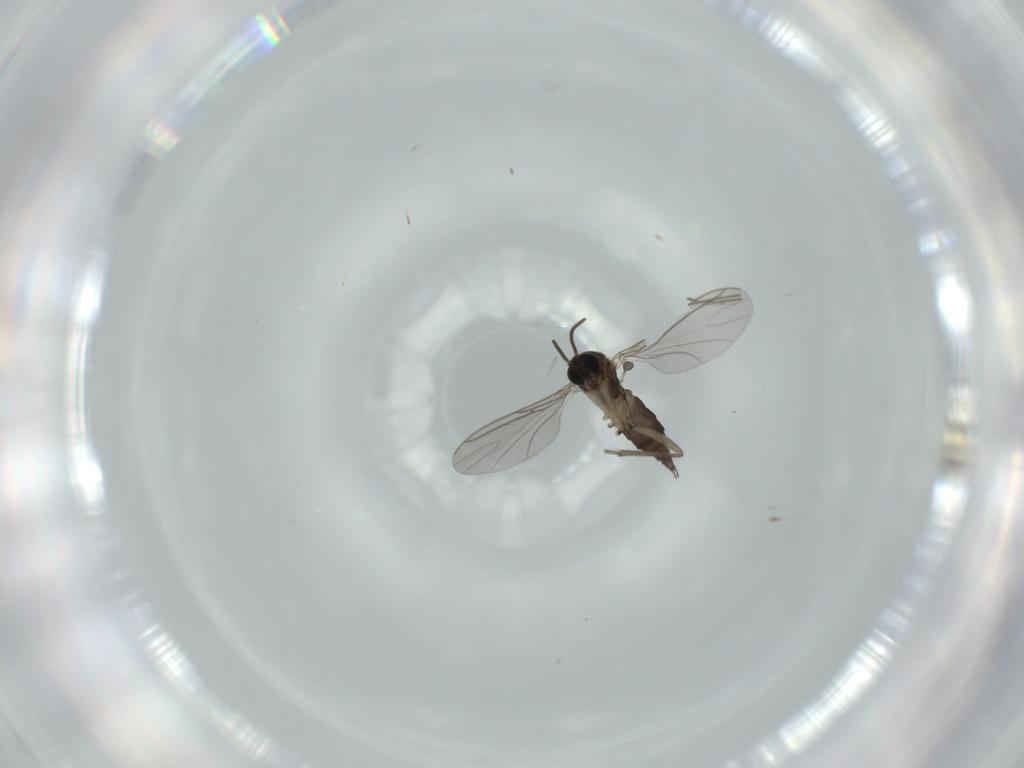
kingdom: Animalia
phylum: Arthropoda
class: Insecta
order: Diptera
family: Sciaridae
